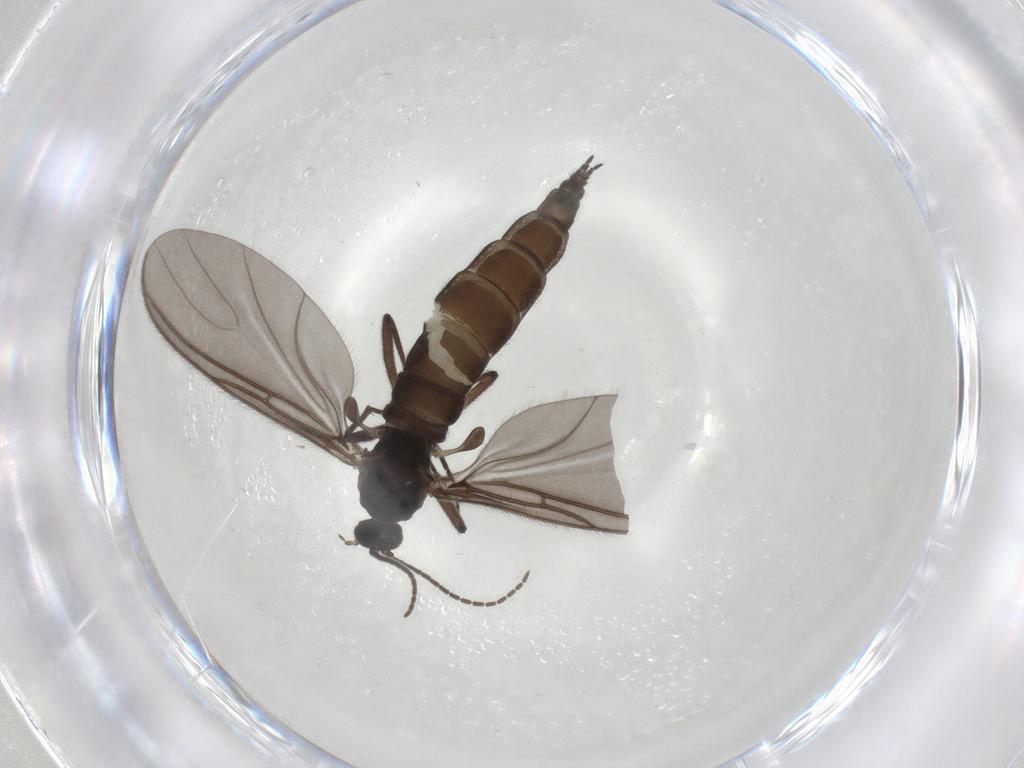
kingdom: Animalia
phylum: Arthropoda
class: Insecta
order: Diptera
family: Sciaridae
